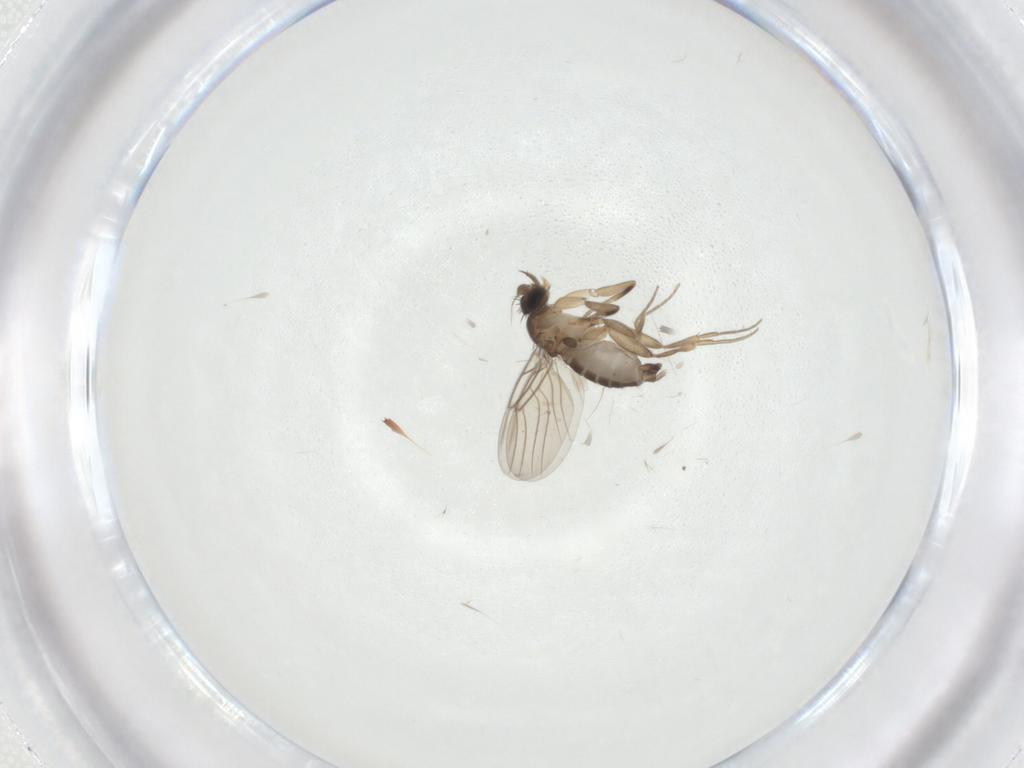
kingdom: Animalia
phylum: Arthropoda
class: Insecta
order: Diptera
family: Phoridae
